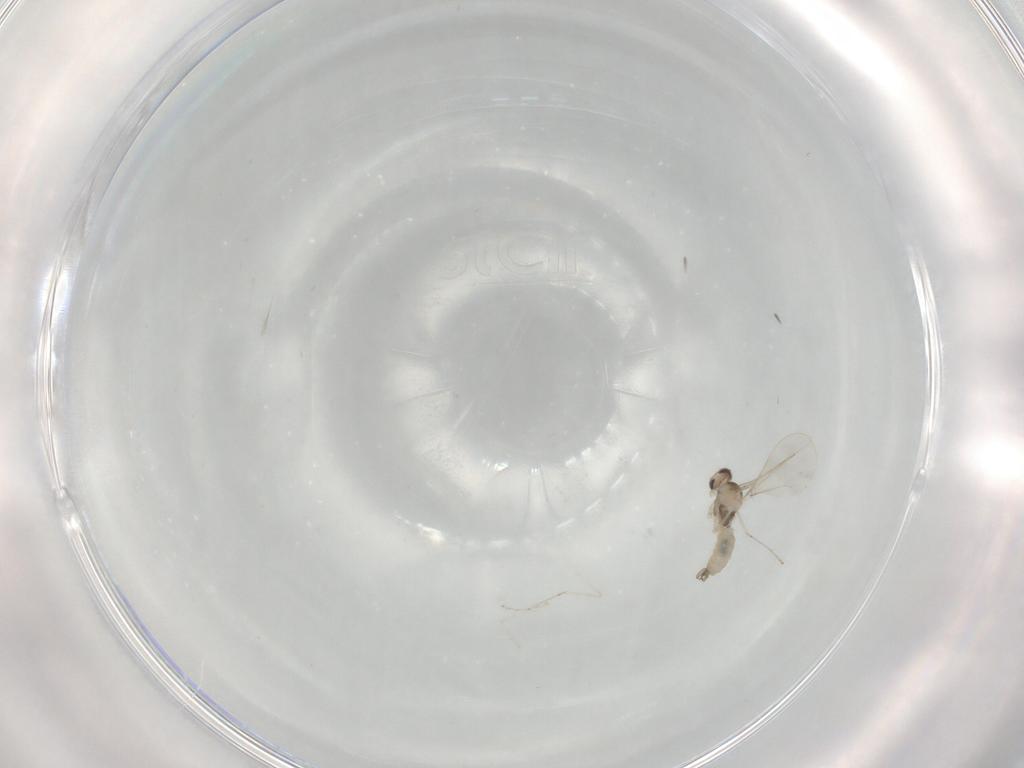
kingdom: Animalia
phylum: Arthropoda
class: Insecta
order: Diptera
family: Cecidomyiidae
